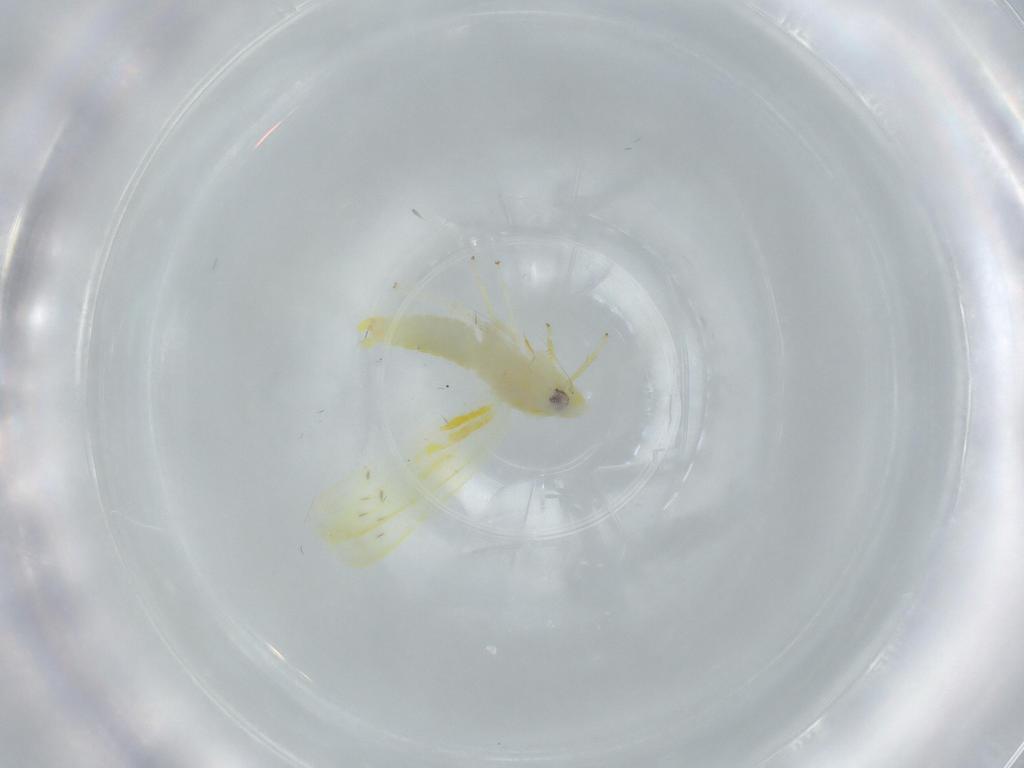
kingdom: Animalia
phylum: Arthropoda
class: Insecta
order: Hemiptera
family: Cicadellidae
